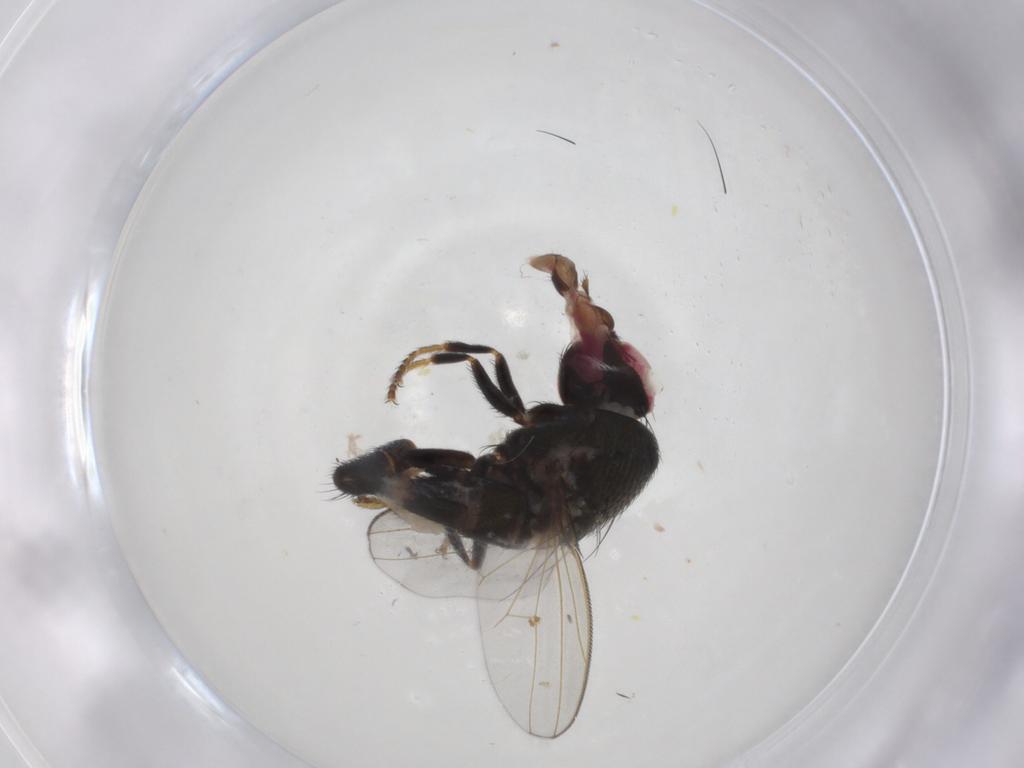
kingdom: Animalia
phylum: Arthropoda
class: Insecta
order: Diptera
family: Ephydridae
